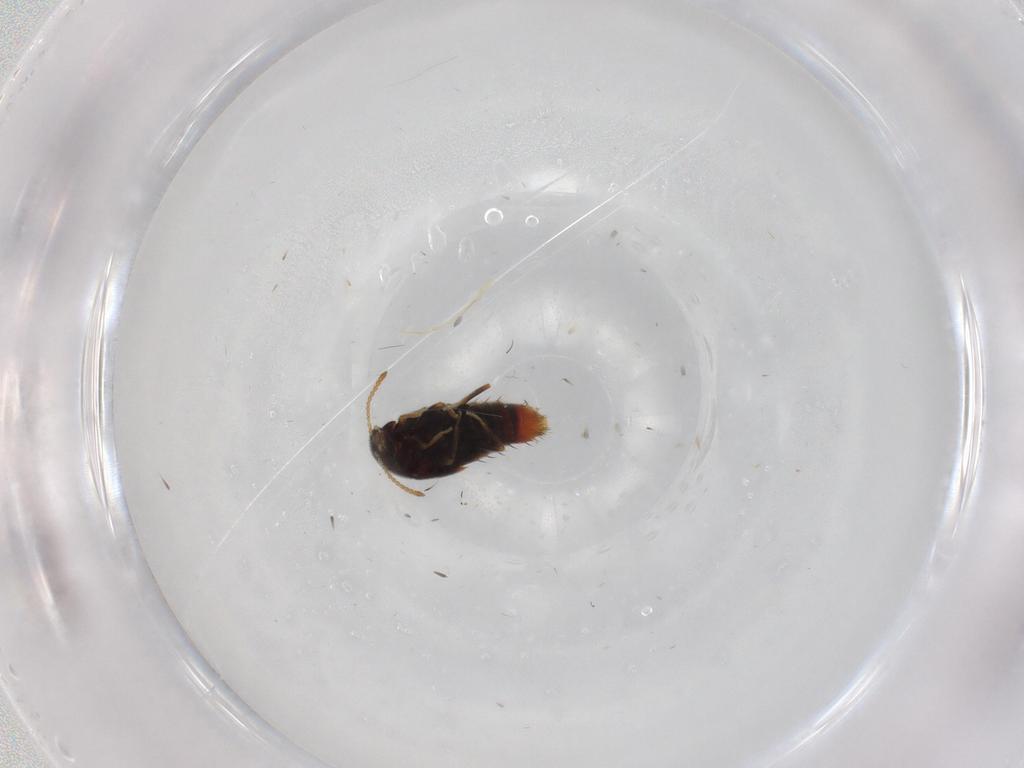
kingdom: Animalia
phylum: Arthropoda
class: Insecta
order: Coleoptera
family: Staphylinidae
